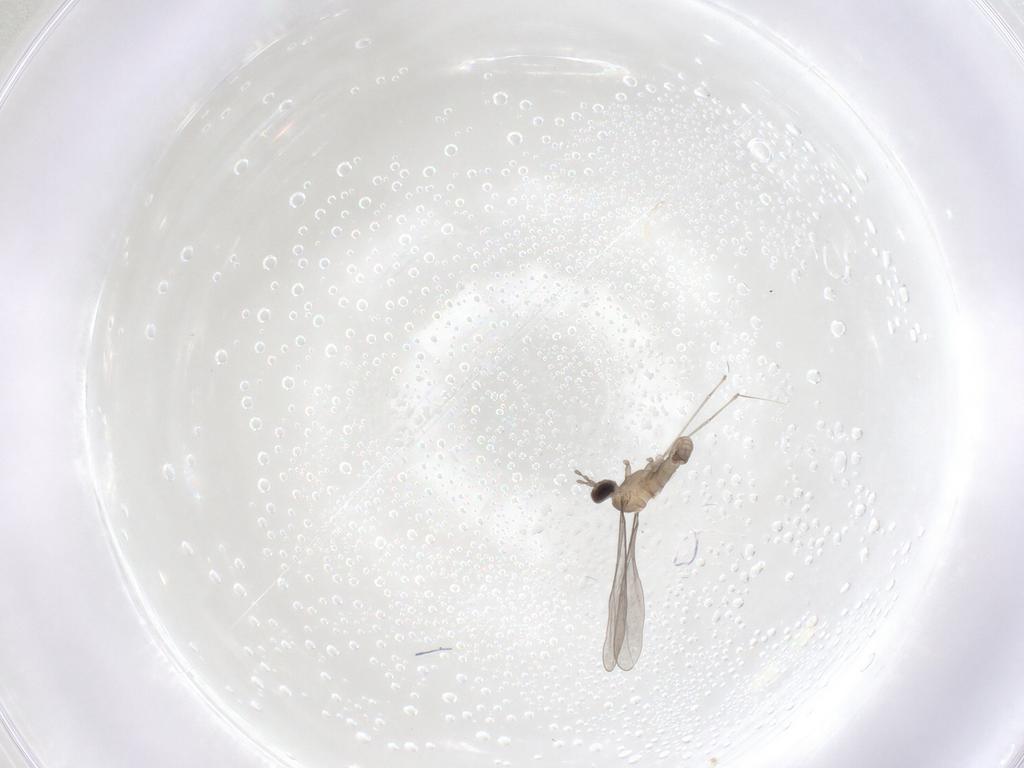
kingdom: Animalia
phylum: Arthropoda
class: Insecta
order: Diptera
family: Cecidomyiidae
